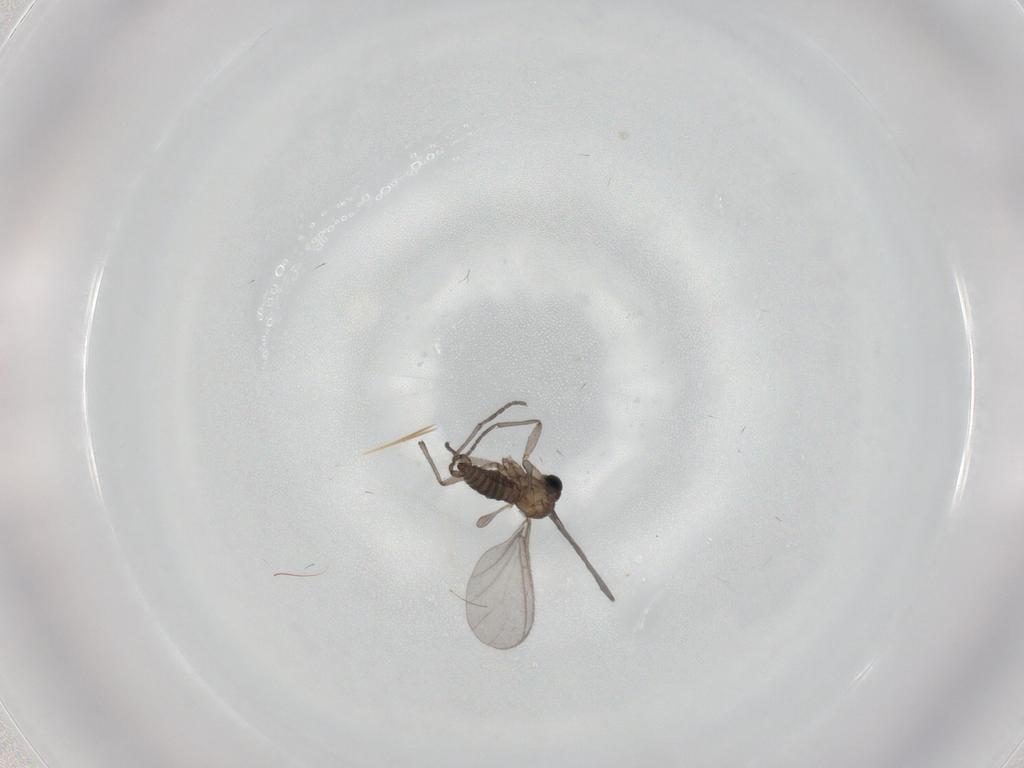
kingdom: Animalia
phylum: Arthropoda
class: Insecta
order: Diptera
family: Sciaridae
